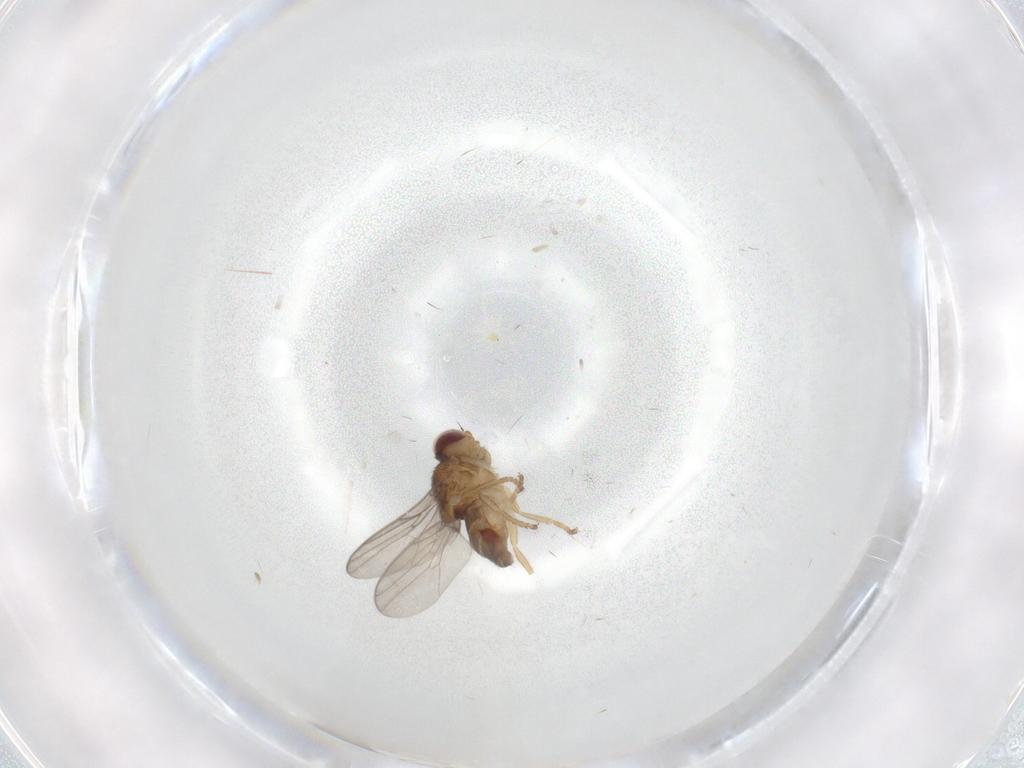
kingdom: Animalia
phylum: Arthropoda
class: Insecta
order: Diptera
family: Chloropidae
